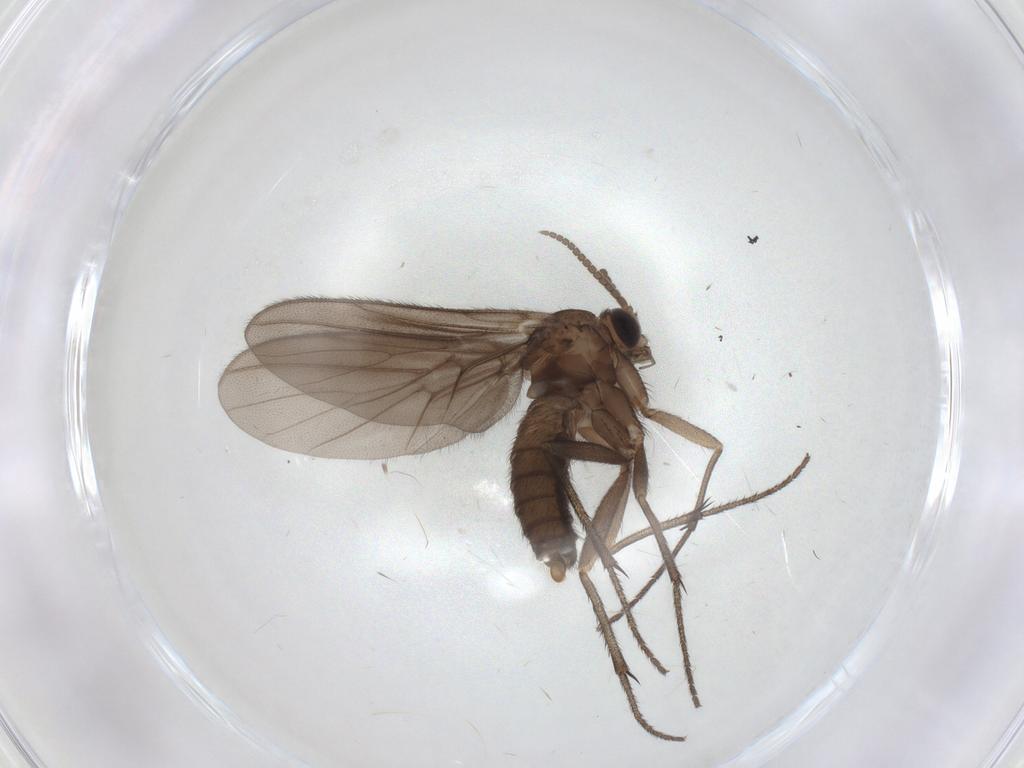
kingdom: Animalia
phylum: Arthropoda
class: Insecta
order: Diptera
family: Diadocidiidae
